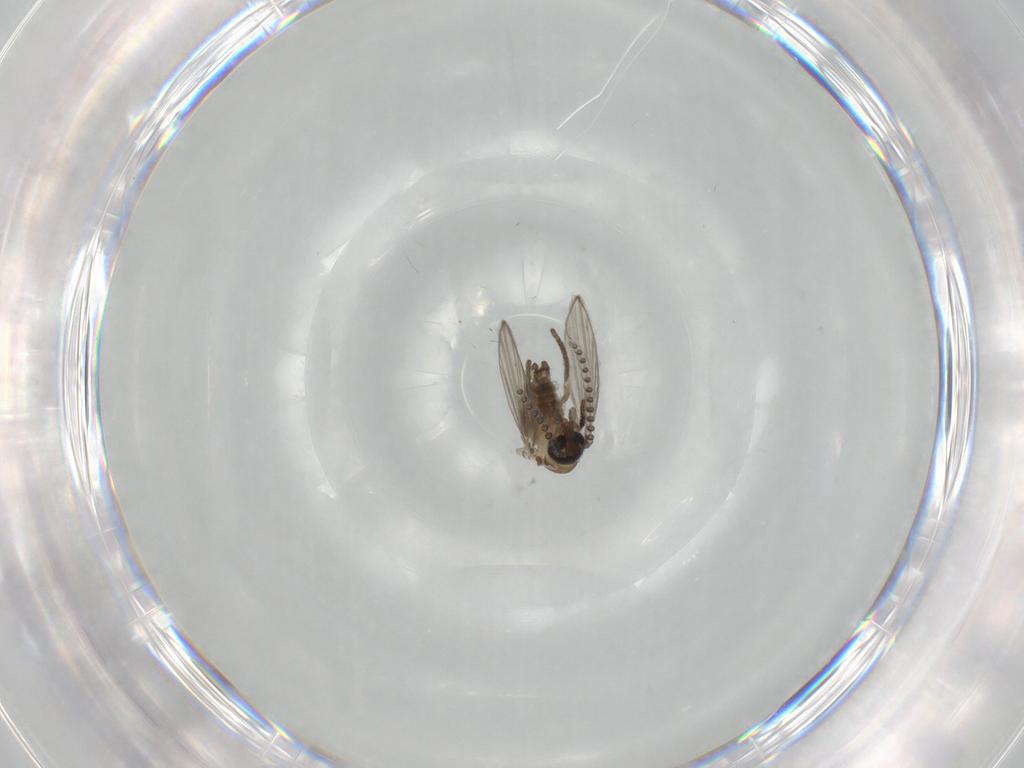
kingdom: Animalia
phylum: Arthropoda
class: Insecta
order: Diptera
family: Psychodidae
